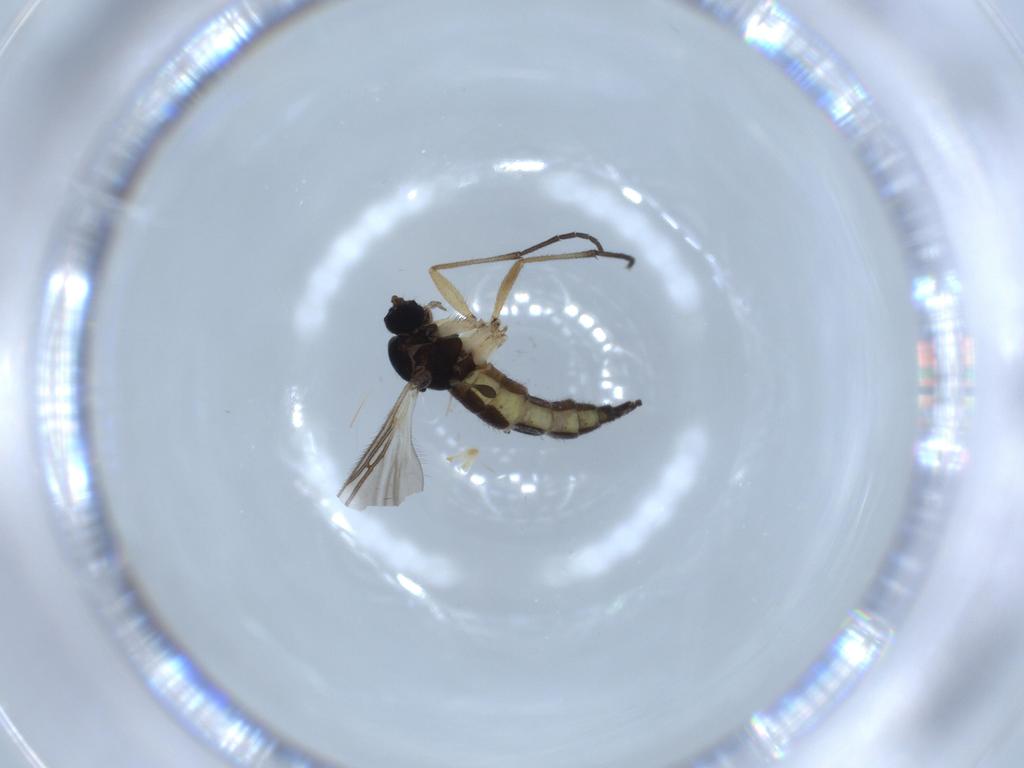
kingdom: Animalia
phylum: Arthropoda
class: Insecta
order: Diptera
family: Sciaridae
